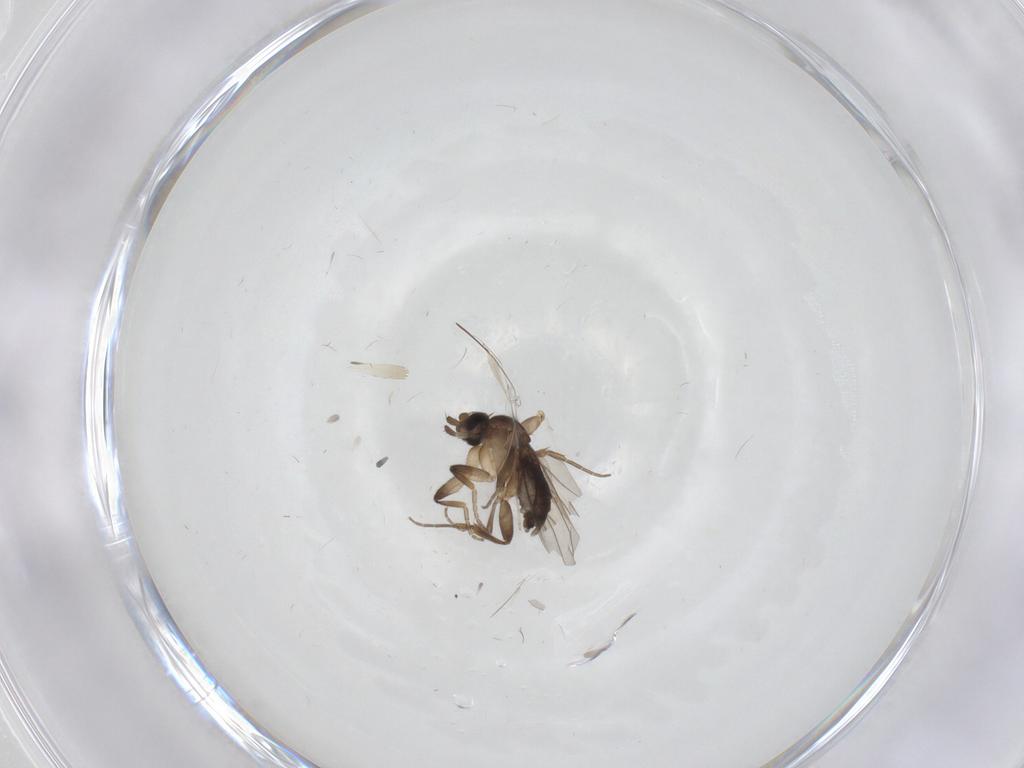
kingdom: Animalia
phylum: Arthropoda
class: Insecta
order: Diptera
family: Phoridae
